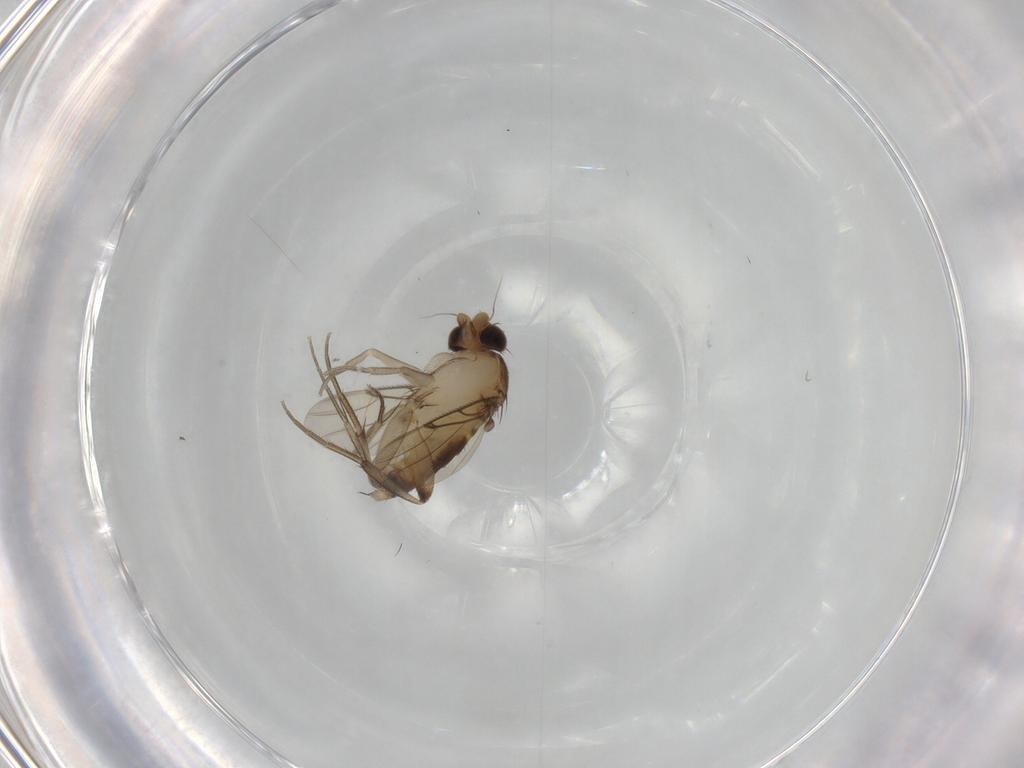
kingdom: Animalia
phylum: Arthropoda
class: Insecta
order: Diptera
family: Phoridae
